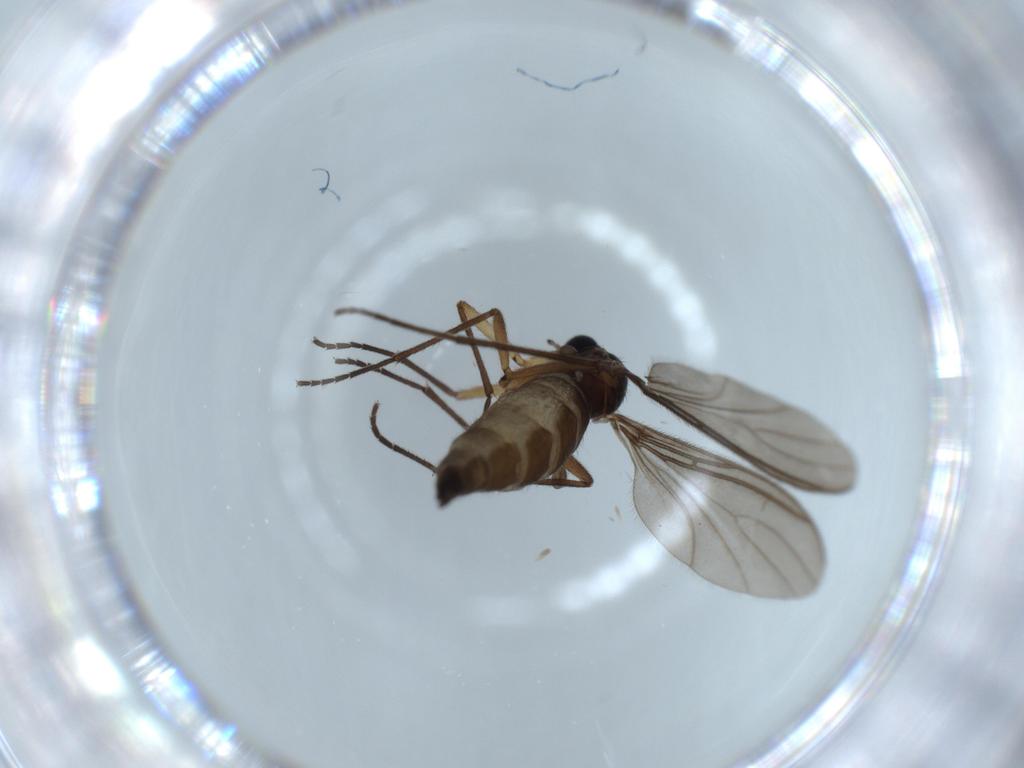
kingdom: Animalia
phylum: Arthropoda
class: Insecta
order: Diptera
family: Sciaridae
